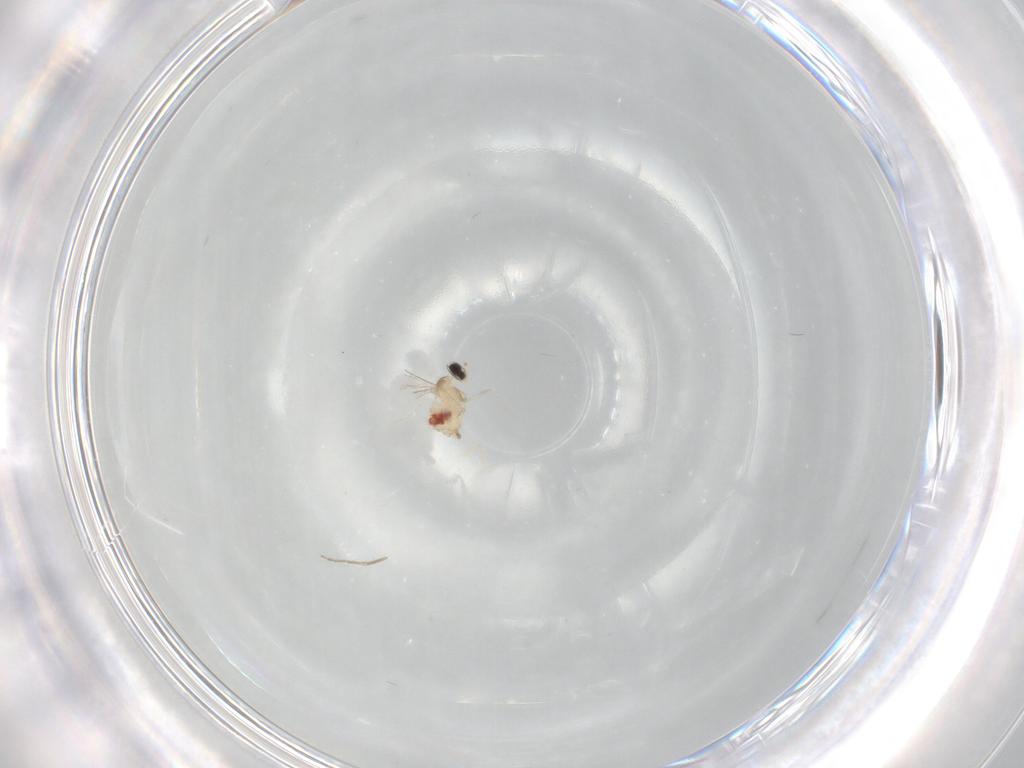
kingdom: Animalia
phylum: Arthropoda
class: Insecta
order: Diptera
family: Cecidomyiidae
